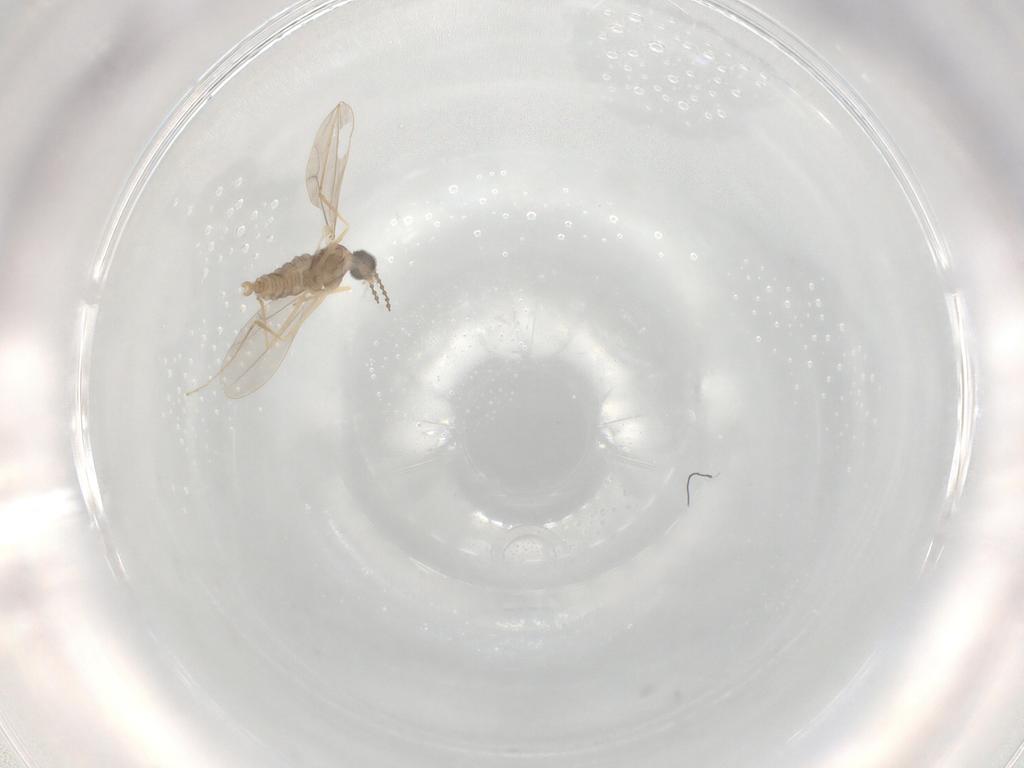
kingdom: Animalia
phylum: Arthropoda
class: Insecta
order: Diptera
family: Cecidomyiidae
